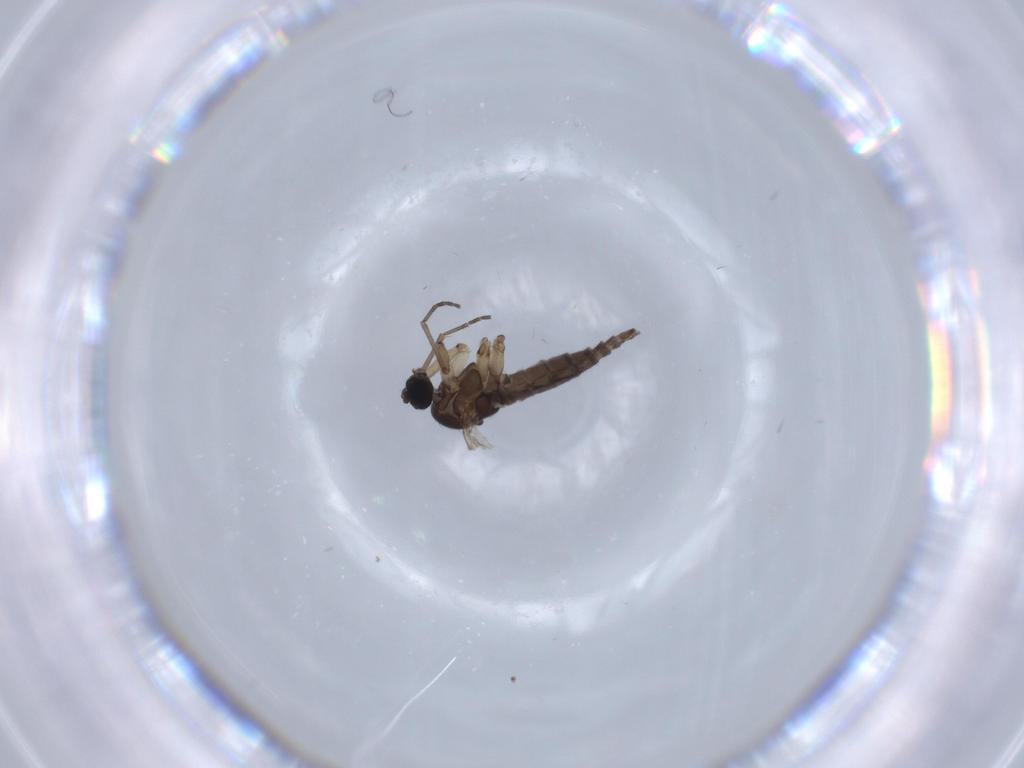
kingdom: Animalia
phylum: Arthropoda
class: Insecta
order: Diptera
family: Sciaridae
